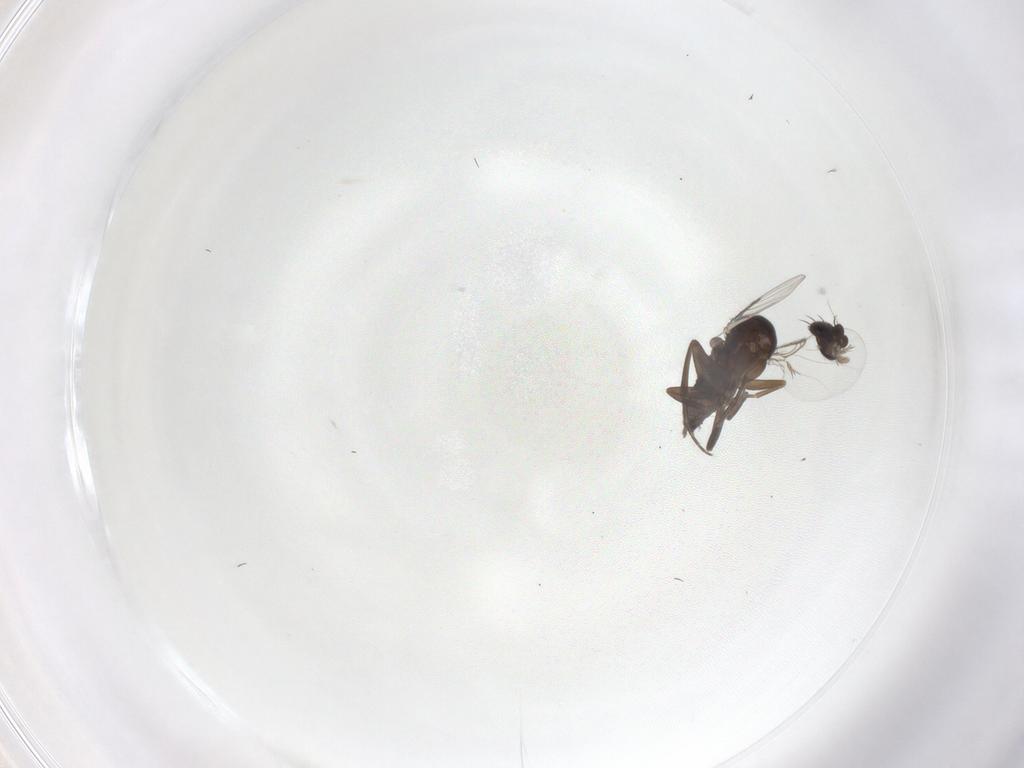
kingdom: Animalia
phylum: Arthropoda
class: Insecta
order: Diptera
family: Phoridae
